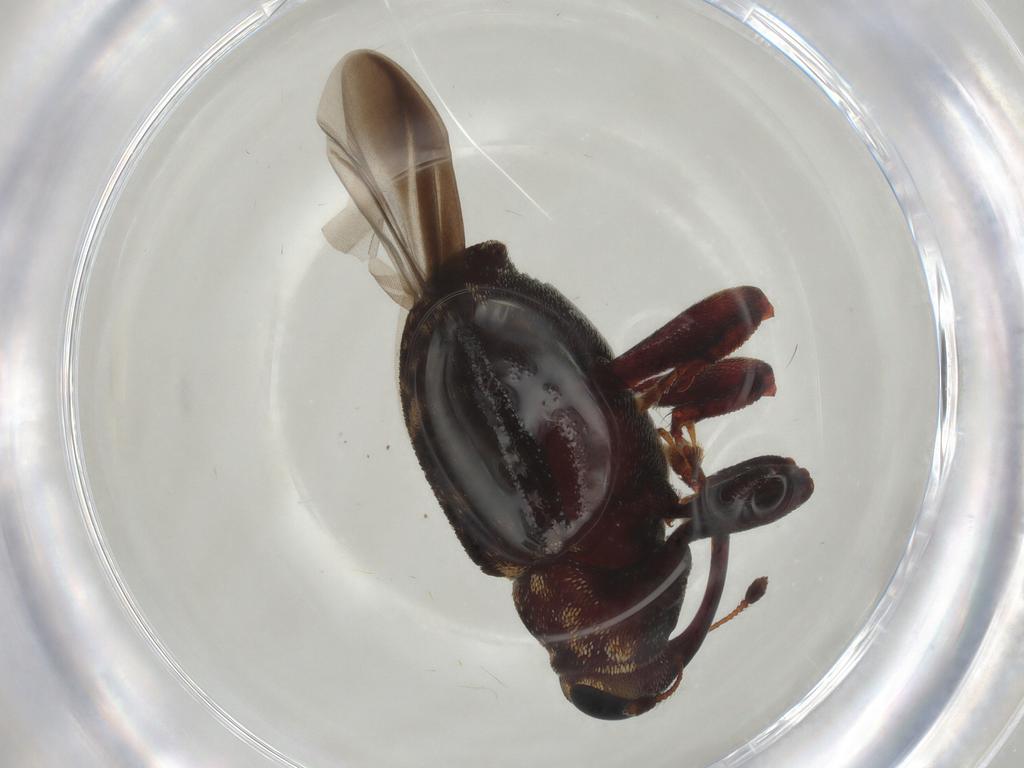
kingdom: Animalia
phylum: Arthropoda
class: Insecta
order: Coleoptera
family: Curculionidae
